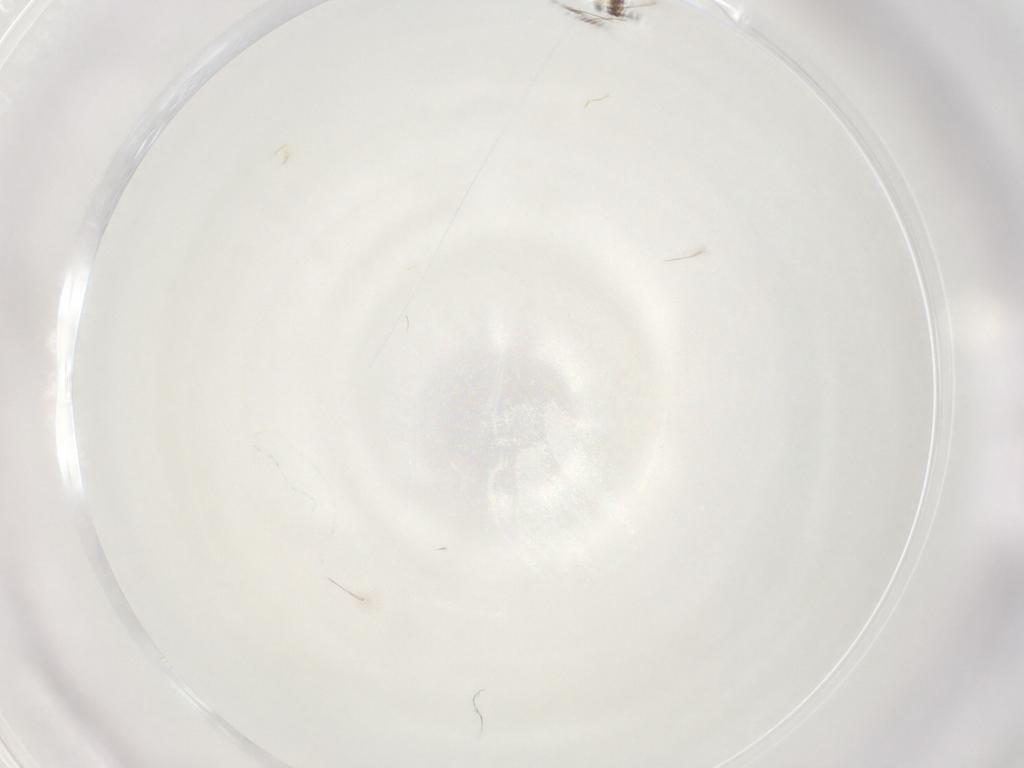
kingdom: Animalia
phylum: Arthropoda
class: Insecta
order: Hymenoptera
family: Mymaridae
